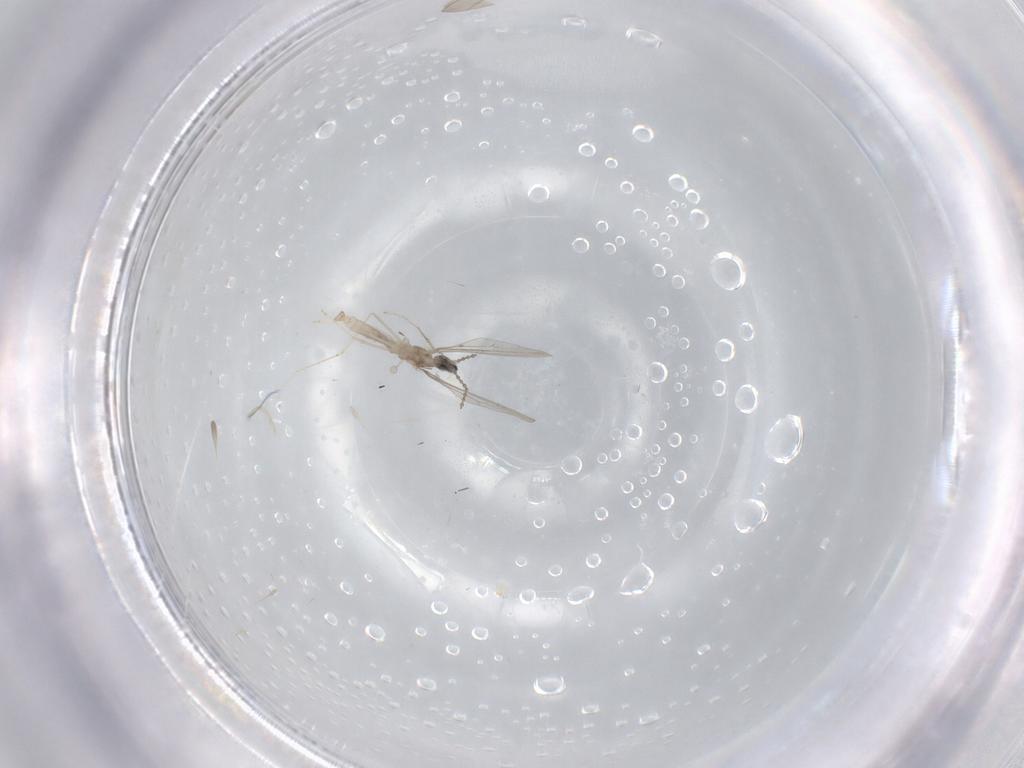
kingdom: Animalia
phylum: Arthropoda
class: Insecta
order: Diptera
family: Cecidomyiidae
